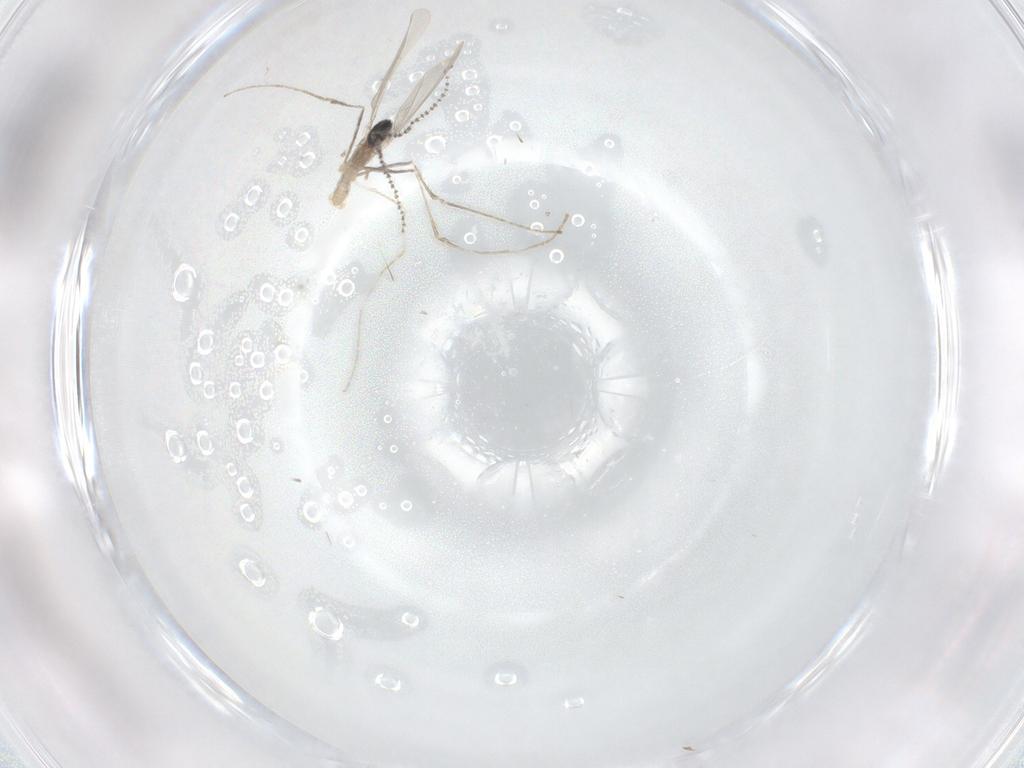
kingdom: Animalia
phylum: Arthropoda
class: Insecta
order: Diptera
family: Cecidomyiidae
